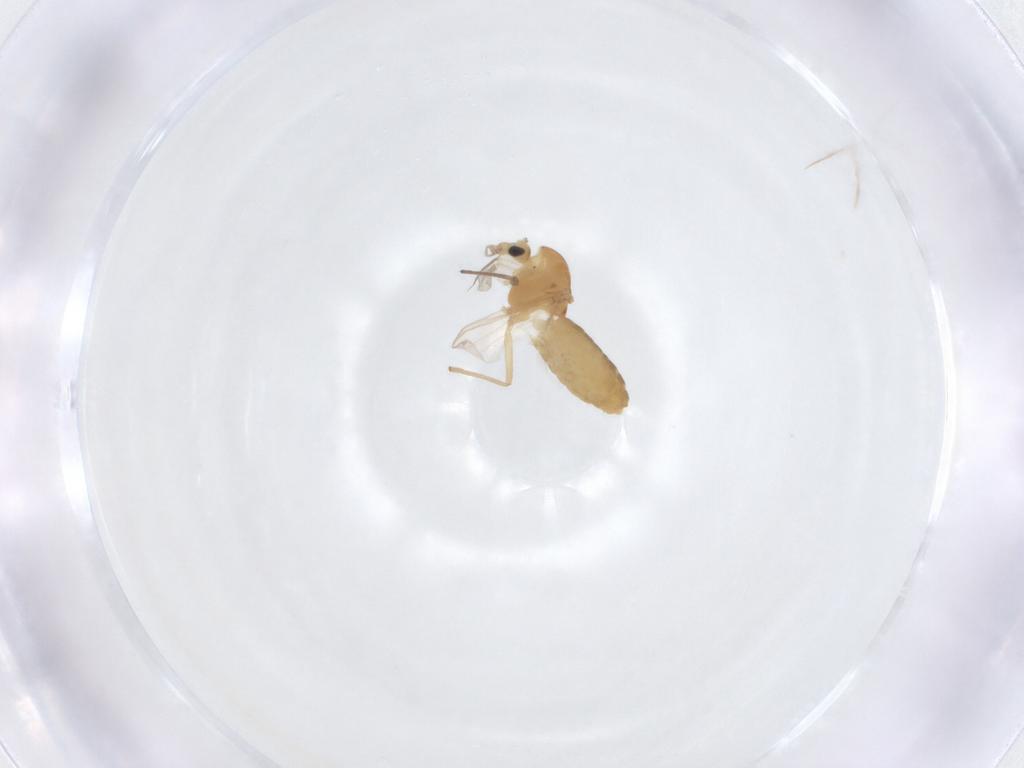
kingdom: Animalia
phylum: Arthropoda
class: Insecta
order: Diptera
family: Chironomidae
